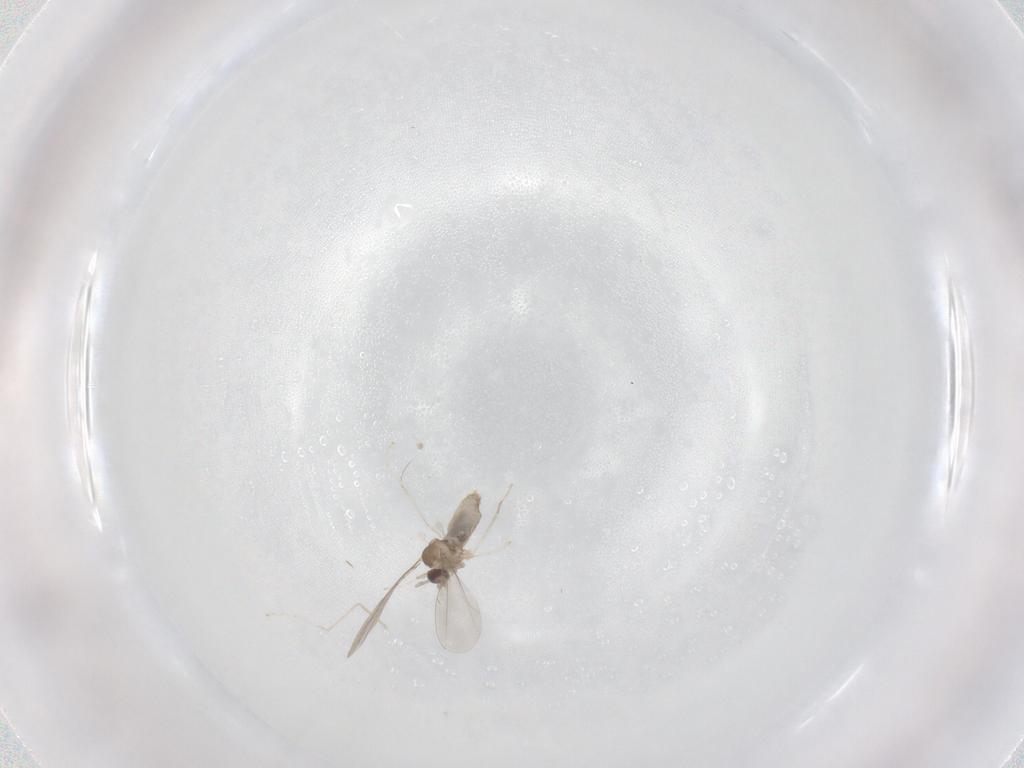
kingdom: Animalia
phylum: Arthropoda
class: Insecta
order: Diptera
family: Cecidomyiidae
